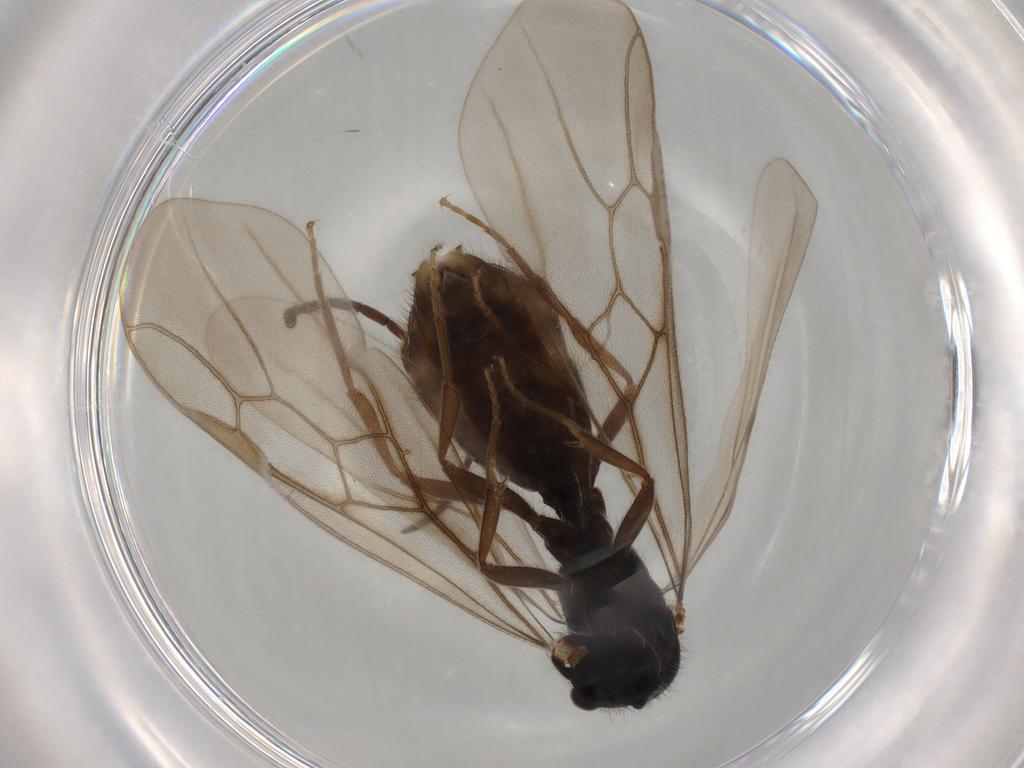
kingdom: Animalia
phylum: Arthropoda
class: Insecta
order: Hymenoptera
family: Formicidae
